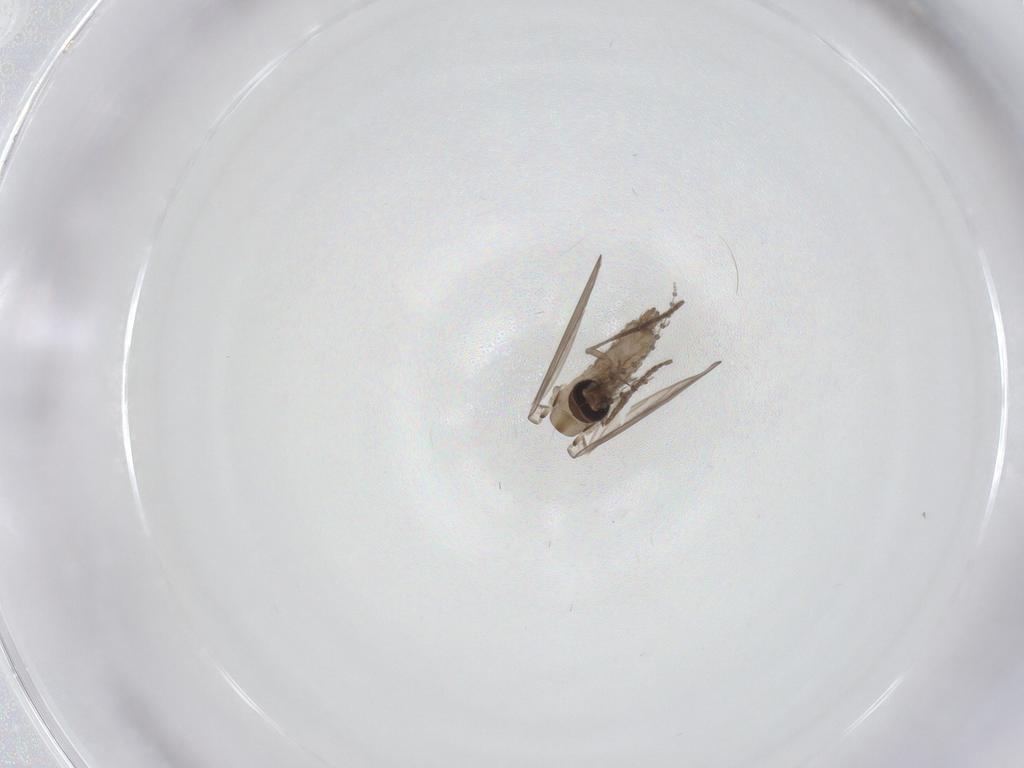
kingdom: Animalia
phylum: Arthropoda
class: Insecta
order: Diptera
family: Psychodidae
